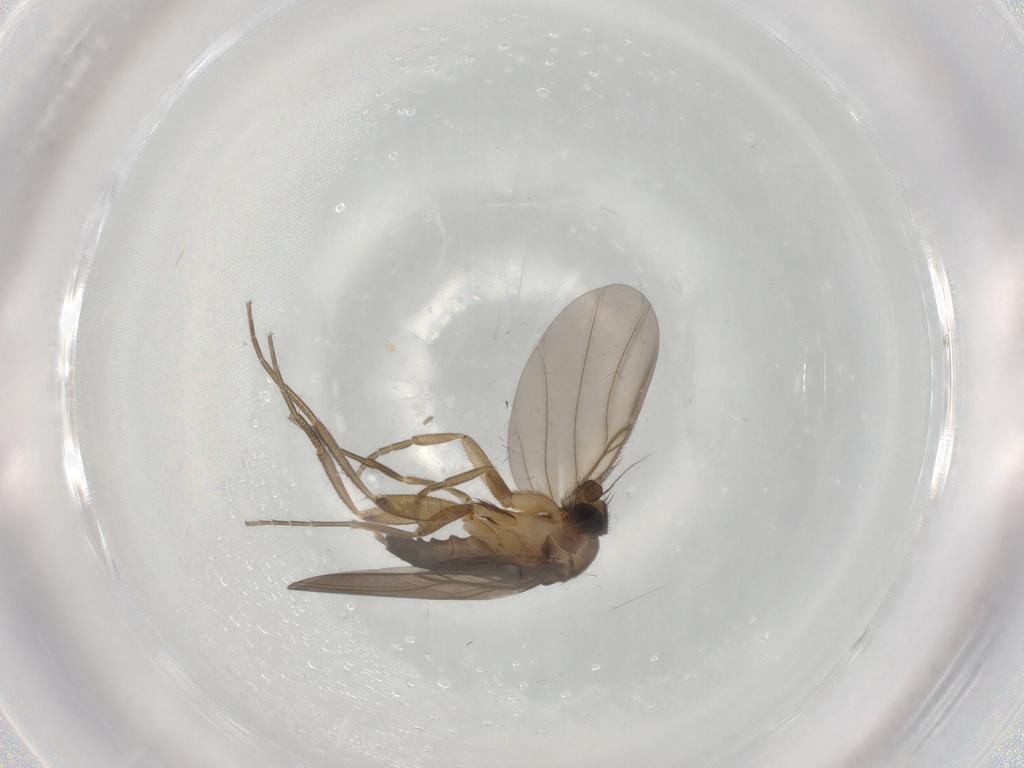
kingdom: Animalia
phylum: Arthropoda
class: Insecta
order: Diptera
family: Phoridae
